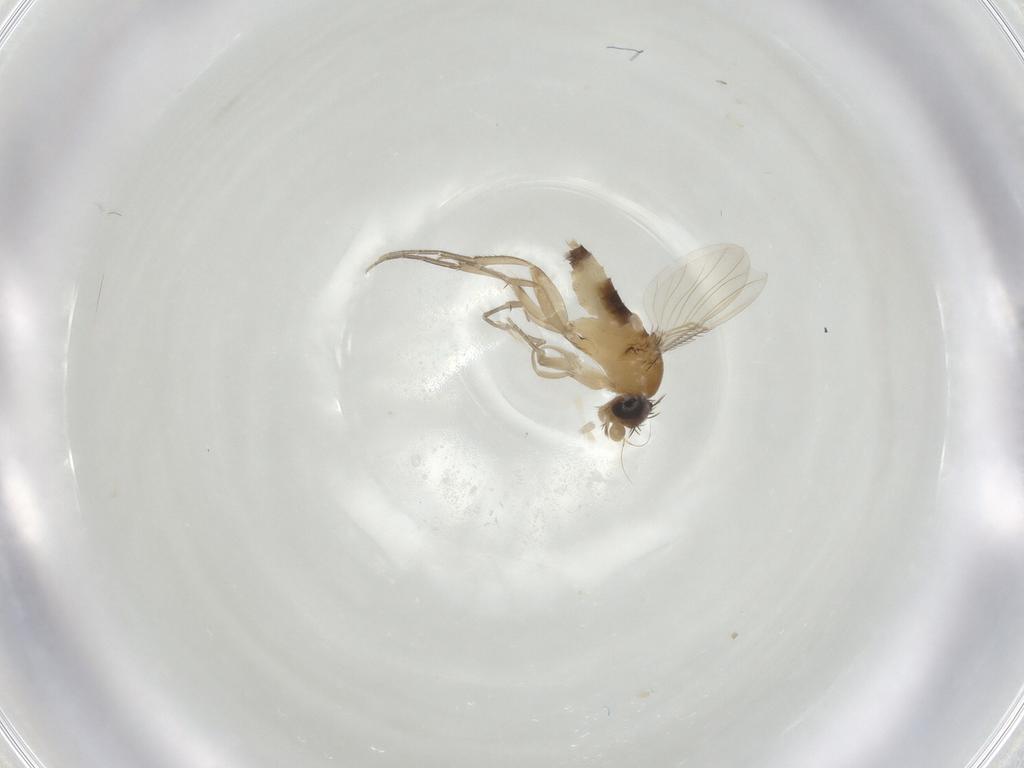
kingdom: Animalia
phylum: Arthropoda
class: Insecta
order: Diptera
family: Phoridae
